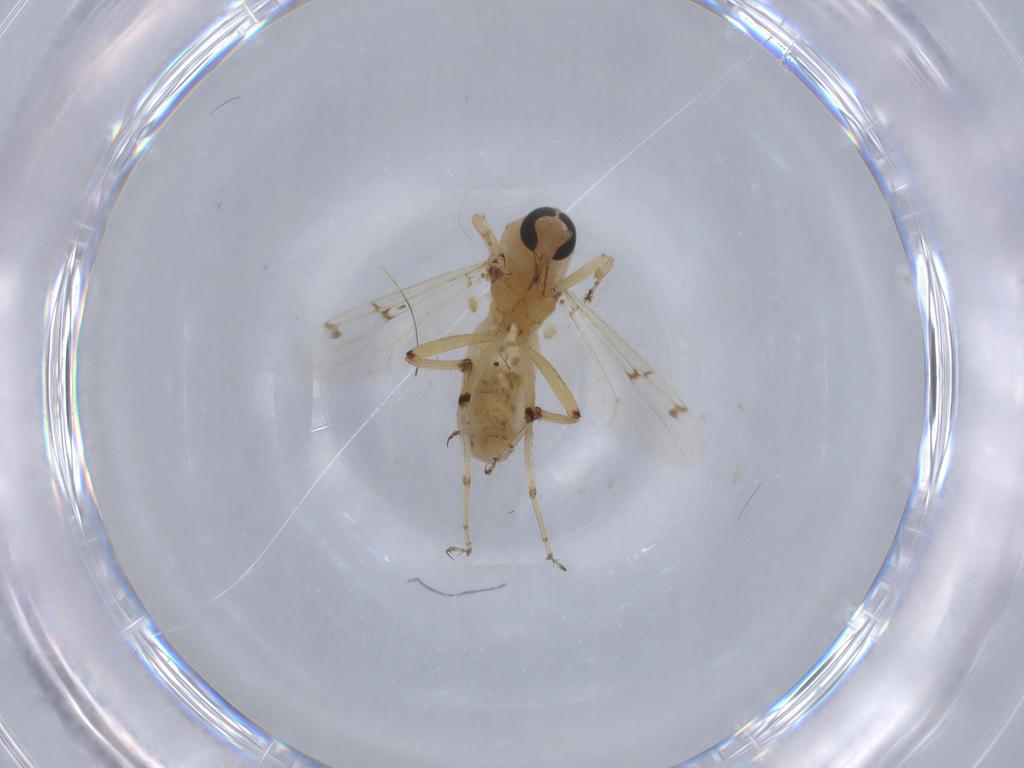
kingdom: Animalia
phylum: Arthropoda
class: Insecta
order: Diptera
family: Ceratopogonidae
